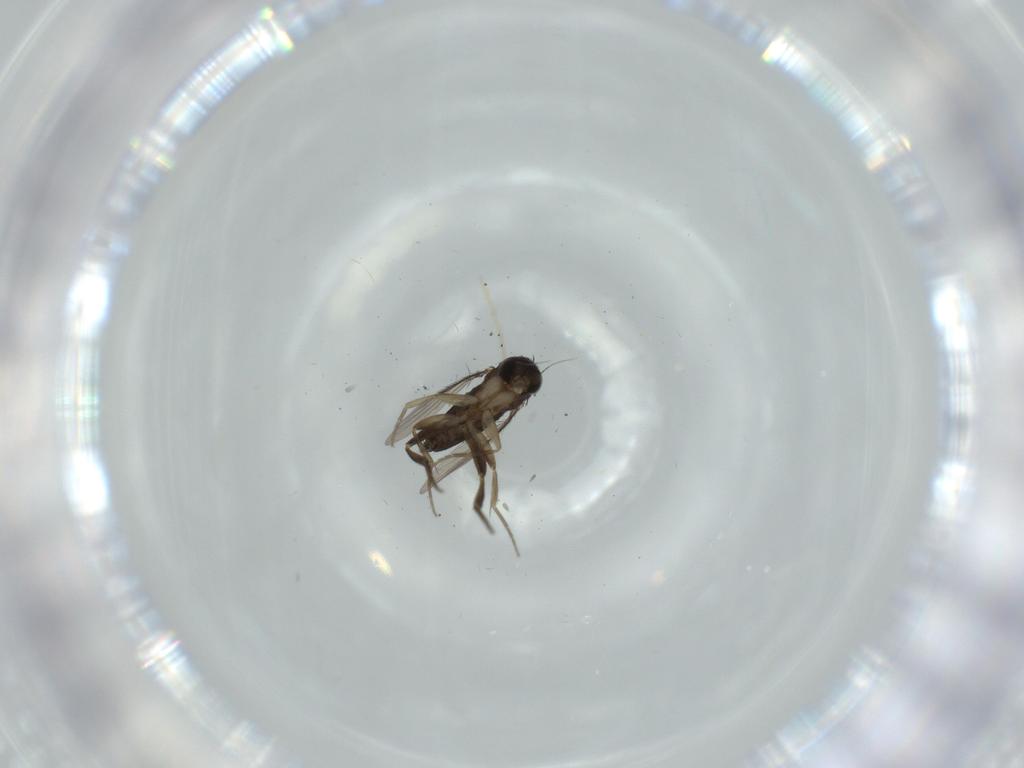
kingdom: Animalia
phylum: Arthropoda
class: Insecta
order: Diptera
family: Phoridae
